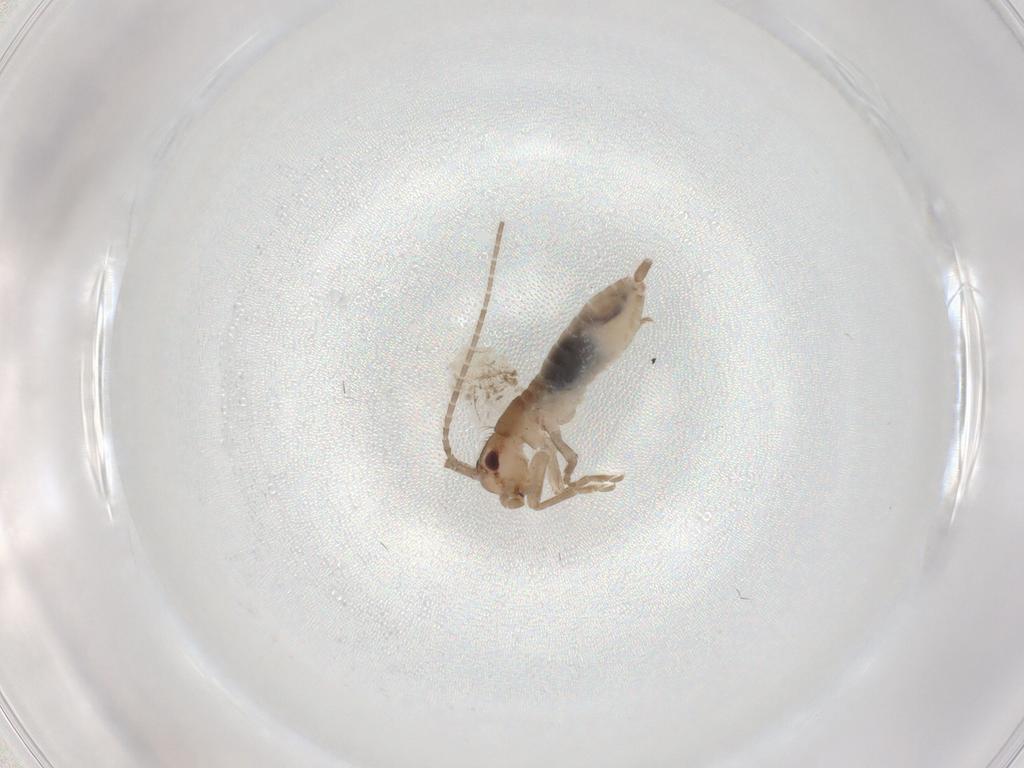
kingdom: Animalia
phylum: Arthropoda
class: Insecta
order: Orthoptera
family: Mogoplistidae
